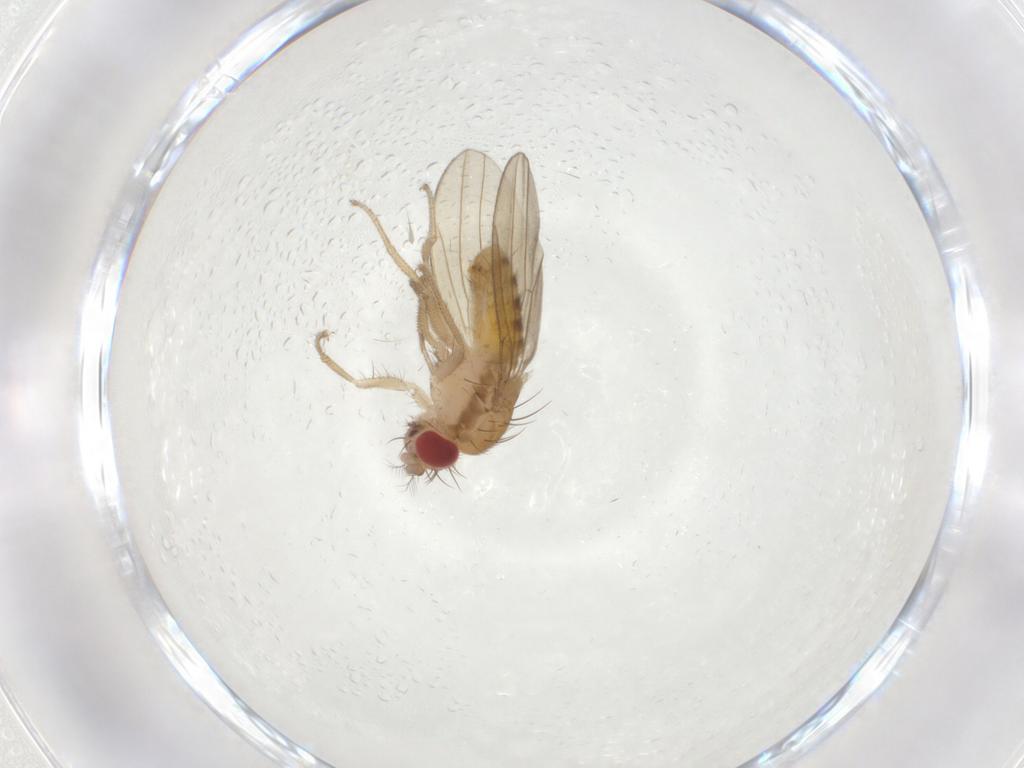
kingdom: Animalia
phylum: Arthropoda
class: Insecta
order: Diptera
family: Drosophilidae
